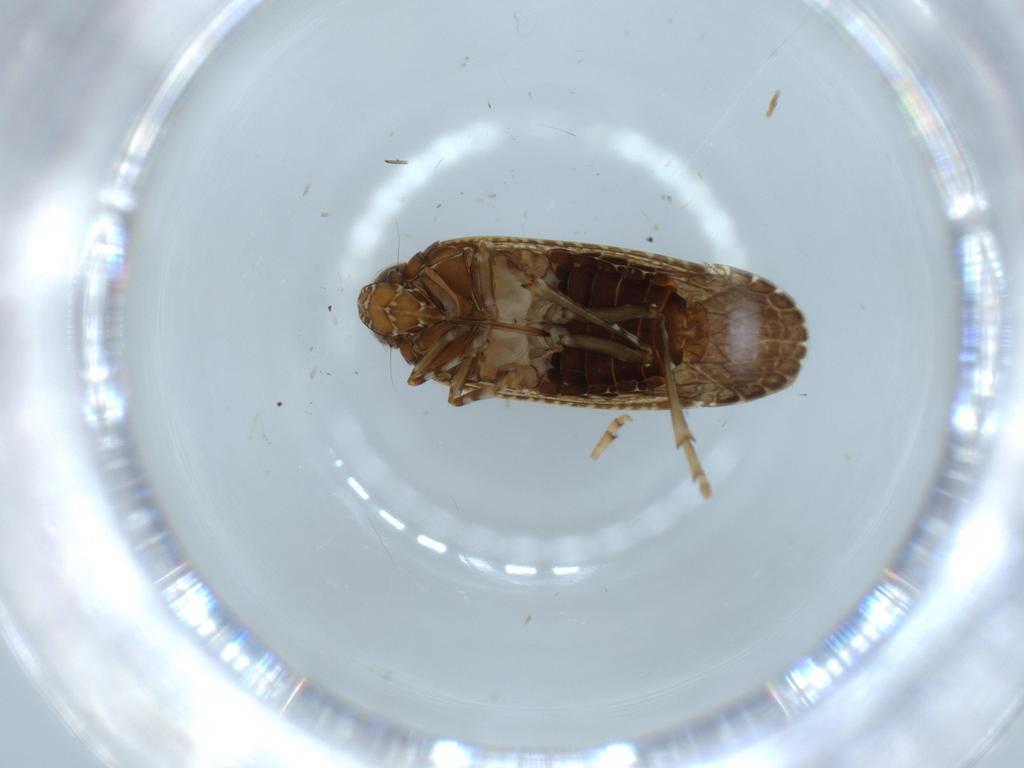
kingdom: Animalia
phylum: Arthropoda
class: Insecta
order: Hemiptera
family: Achilidae
